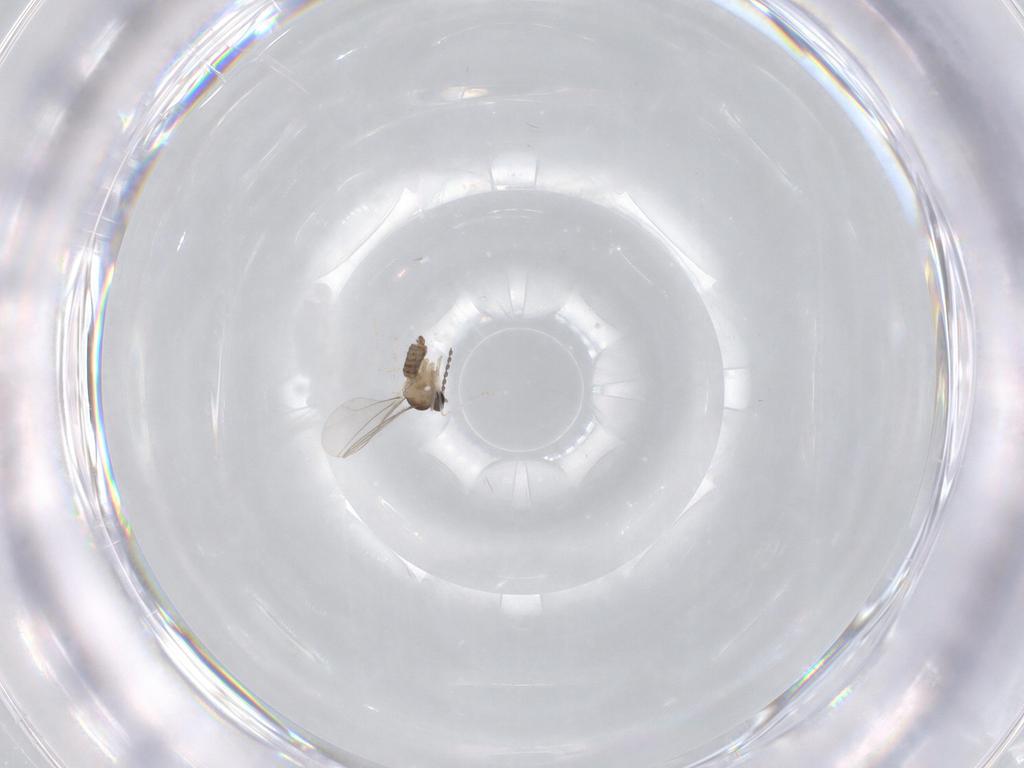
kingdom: Animalia
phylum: Arthropoda
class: Insecta
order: Diptera
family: Cecidomyiidae
